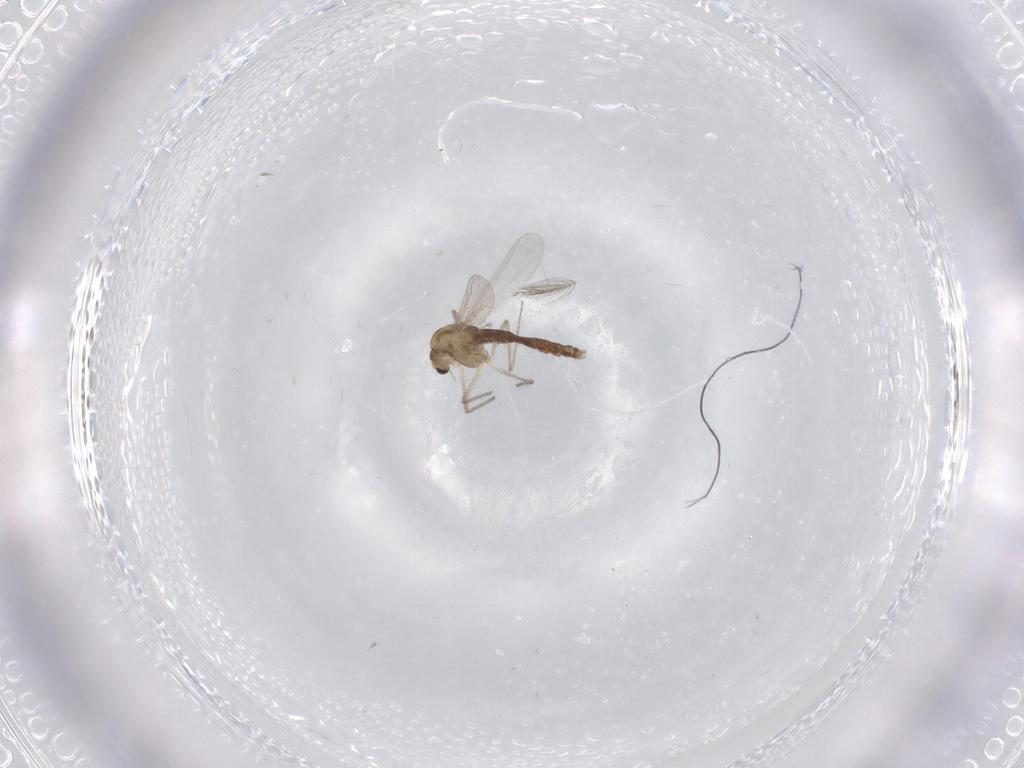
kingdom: Animalia
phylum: Arthropoda
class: Insecta
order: Diptera
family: Chironomidae
